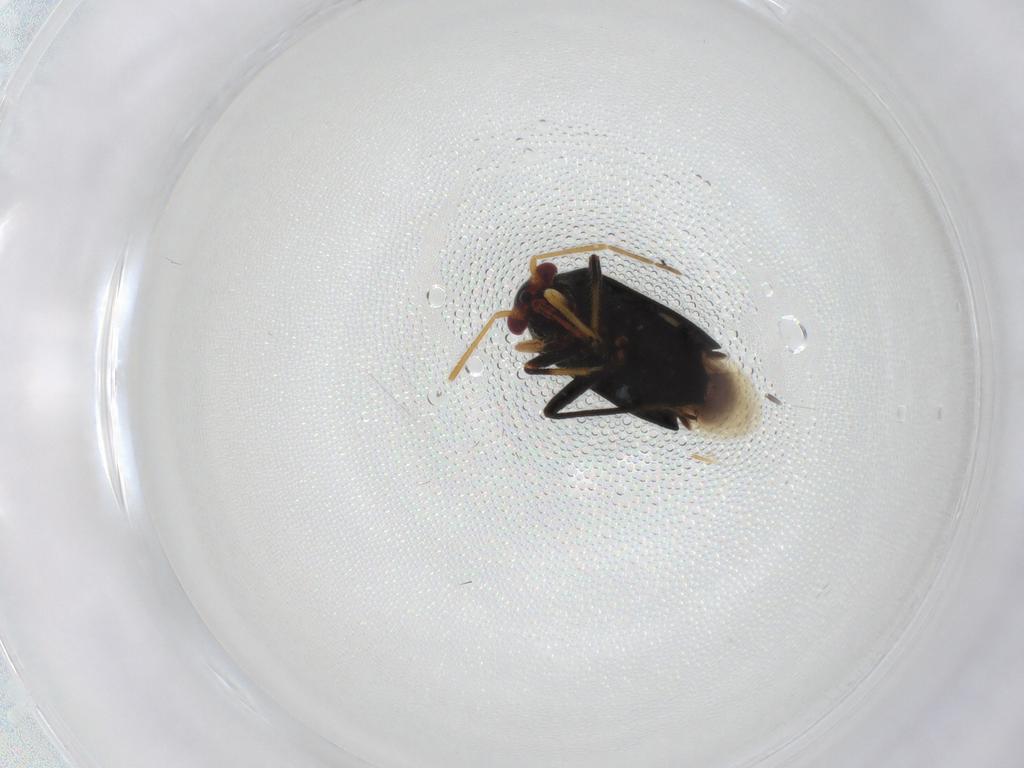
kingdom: Animalia
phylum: Arthropoda
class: Insecta
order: Hemiptera
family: Miridae
